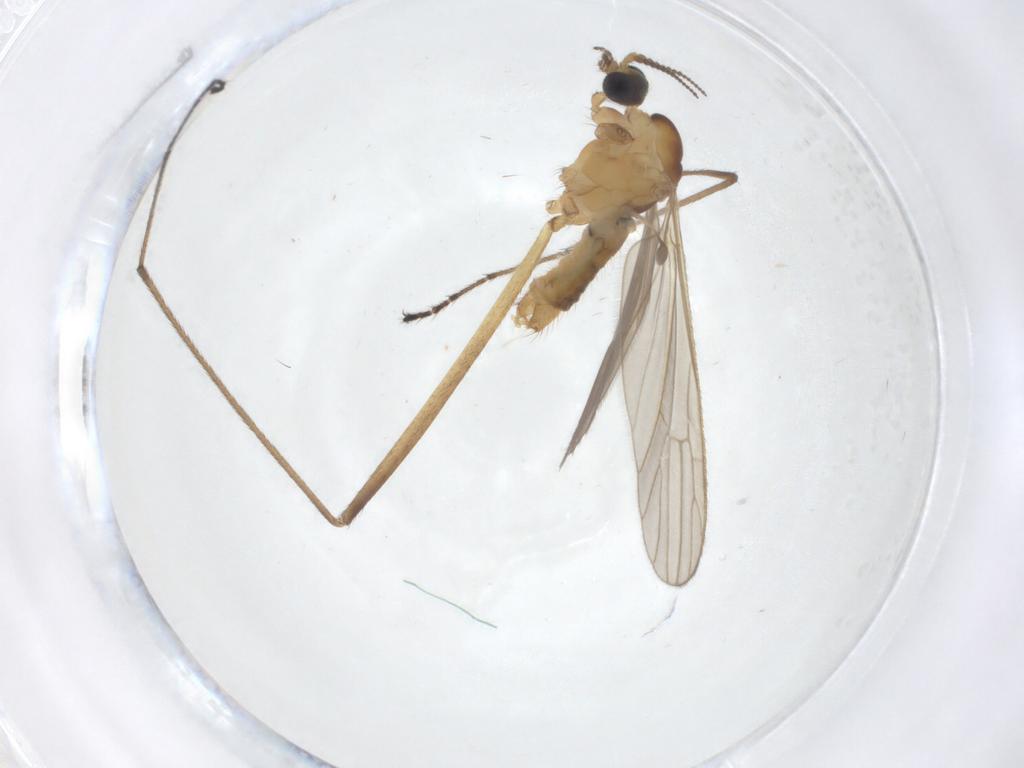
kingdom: Animalia
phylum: Arthropoda
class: Insecta
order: Diptera
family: Limoniidae
